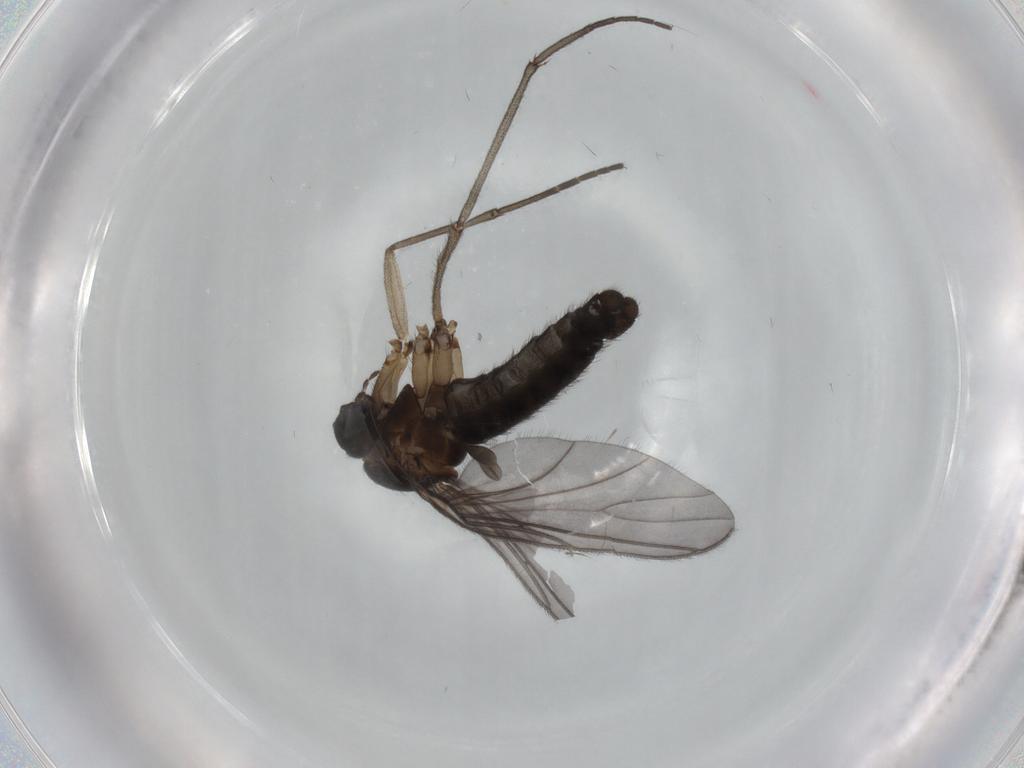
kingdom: Animalia
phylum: Arthropoda
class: Insecta
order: Diptera
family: Sciaridae
